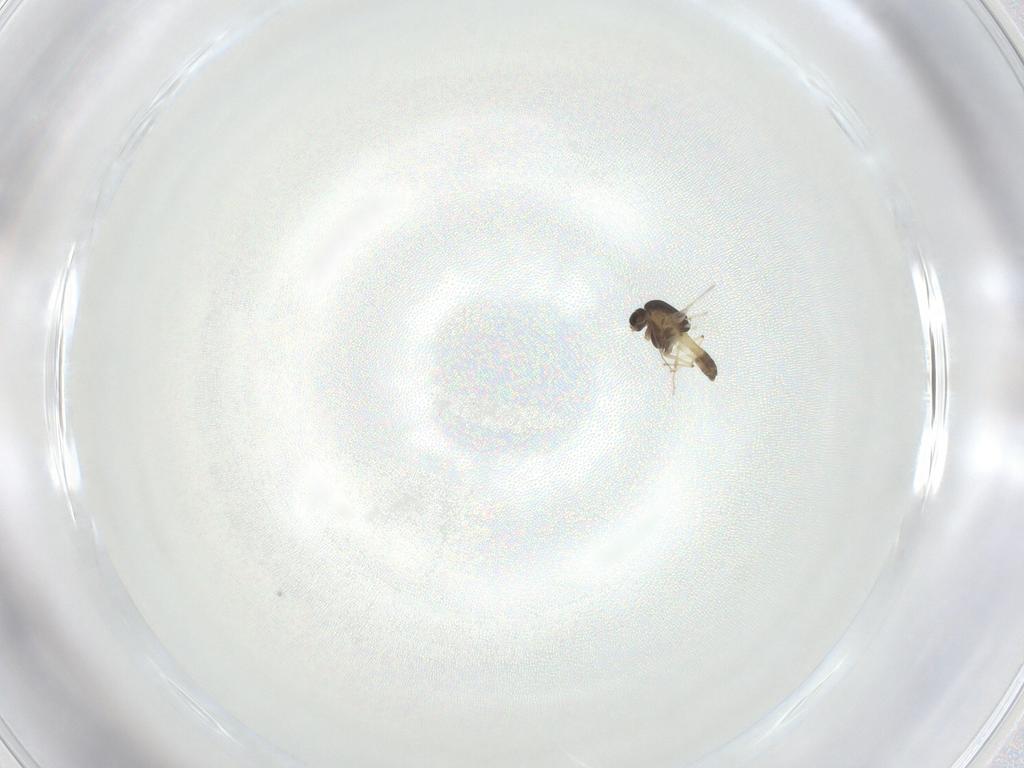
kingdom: Animalia
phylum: Arthropoda
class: Insecta
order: Diptera
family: Chironomidae
